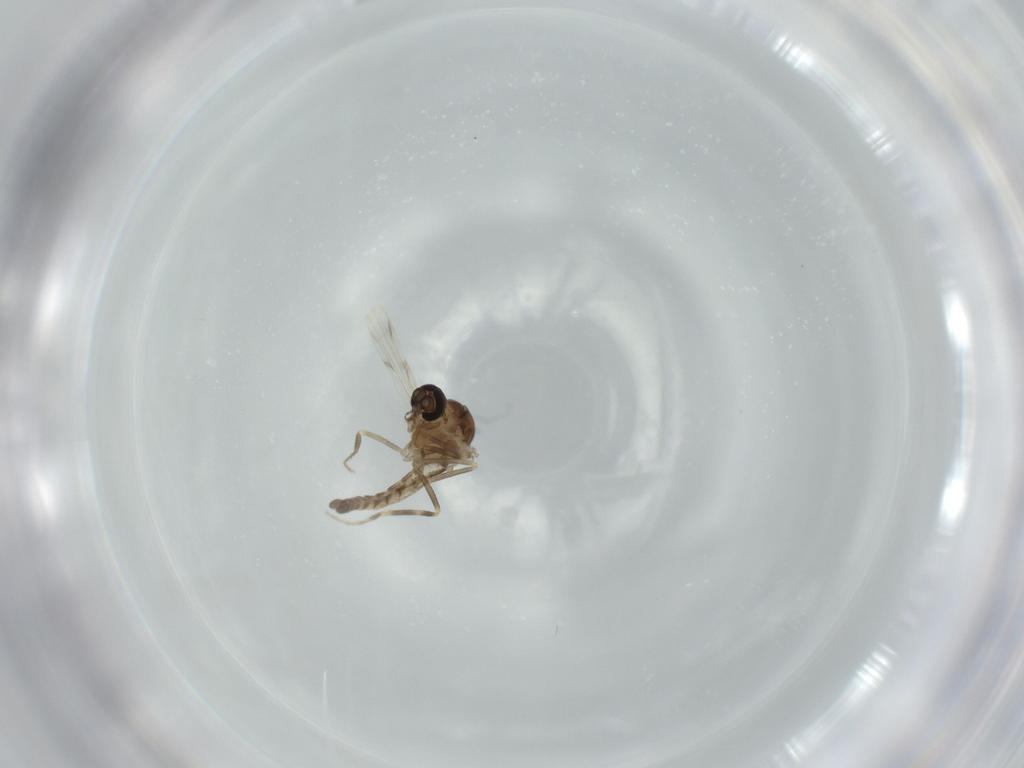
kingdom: Animalia
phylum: Arthropoda
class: Insecta
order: Diptera
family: Ceratopogonidae
